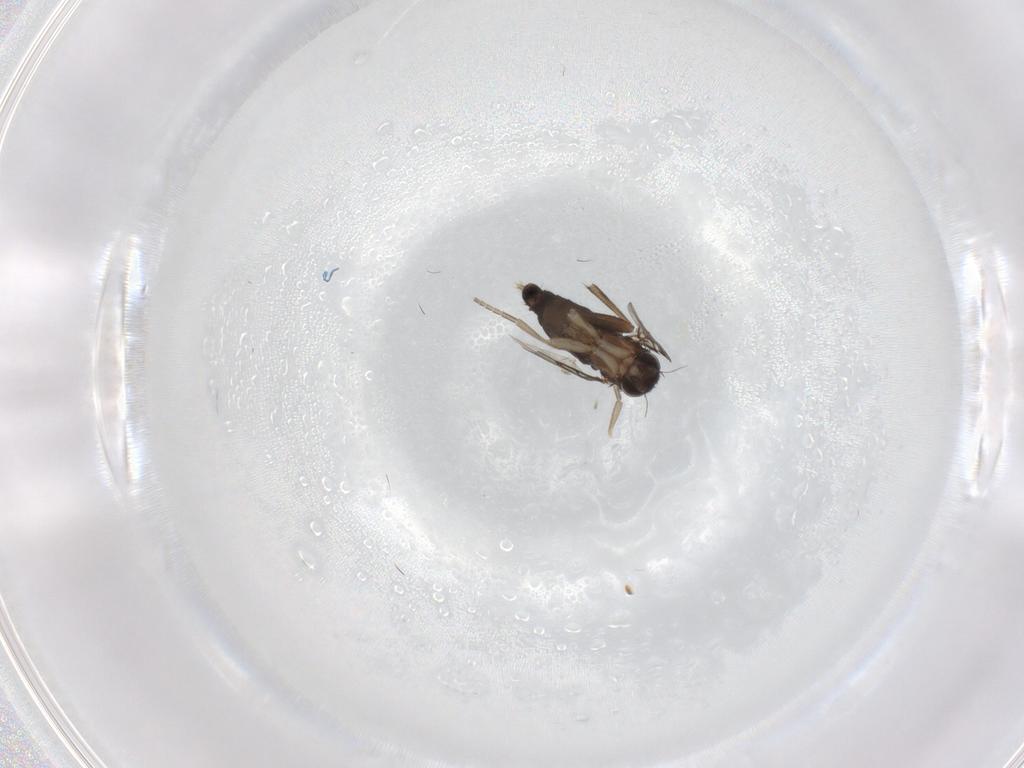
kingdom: Animalia
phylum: Arthropoda
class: Insecta
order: Diptera
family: Phoridae
